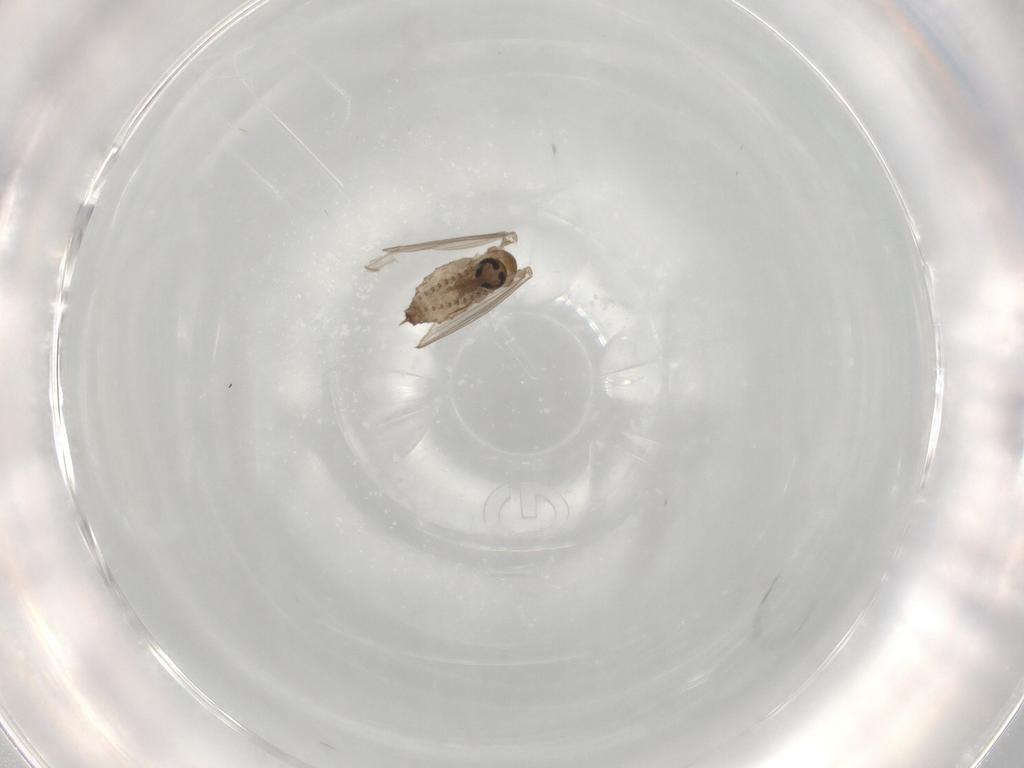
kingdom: Animalia
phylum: Arthropoda
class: Insecta
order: Diptera
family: Psychodidae
